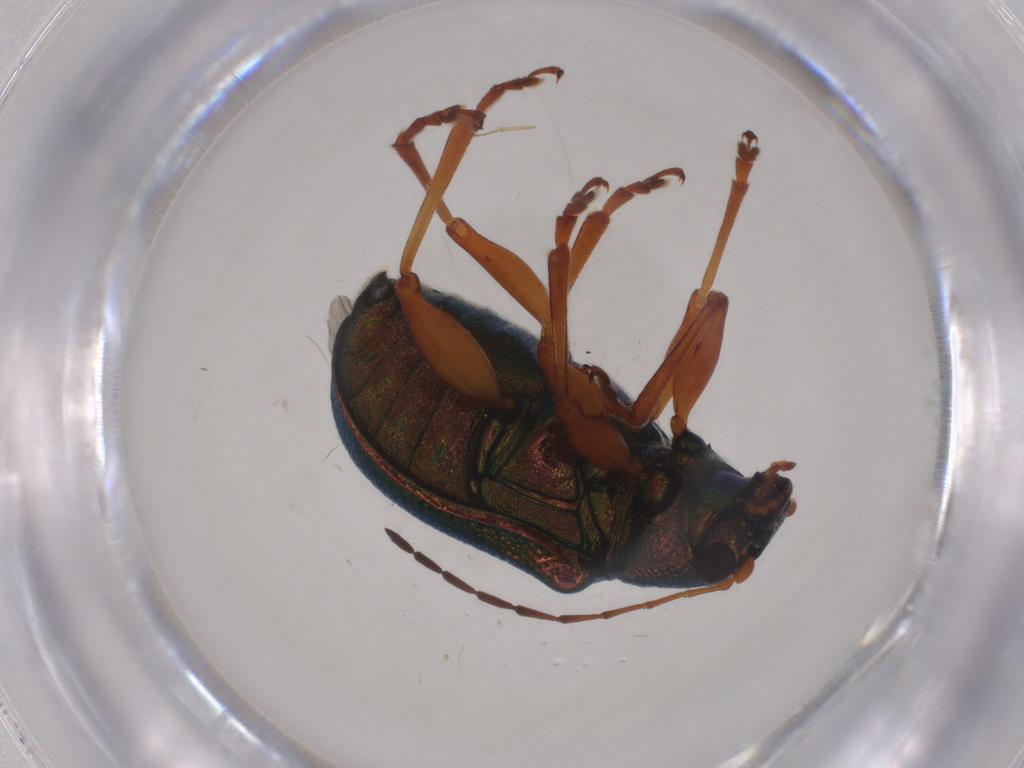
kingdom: Animalia
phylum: Arthropoda
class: Insecta
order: Coleoptera
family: Chrysomelidae
